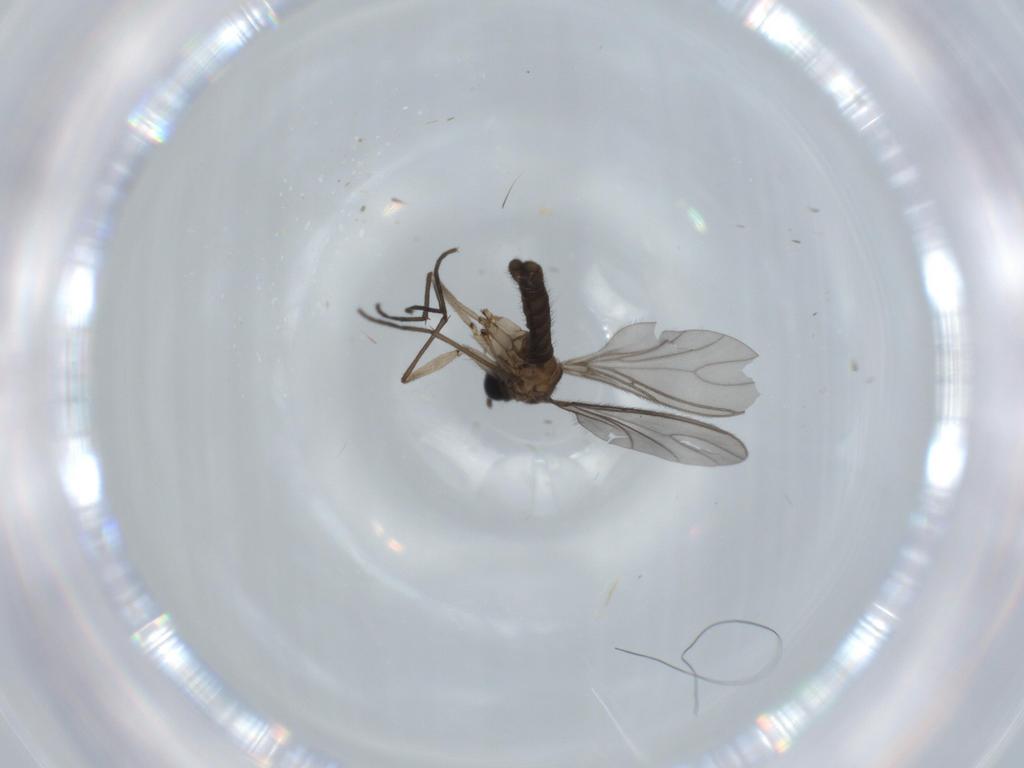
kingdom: Animalia
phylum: Arthropoda
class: Insecta
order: Diptera
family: Sciaridae
